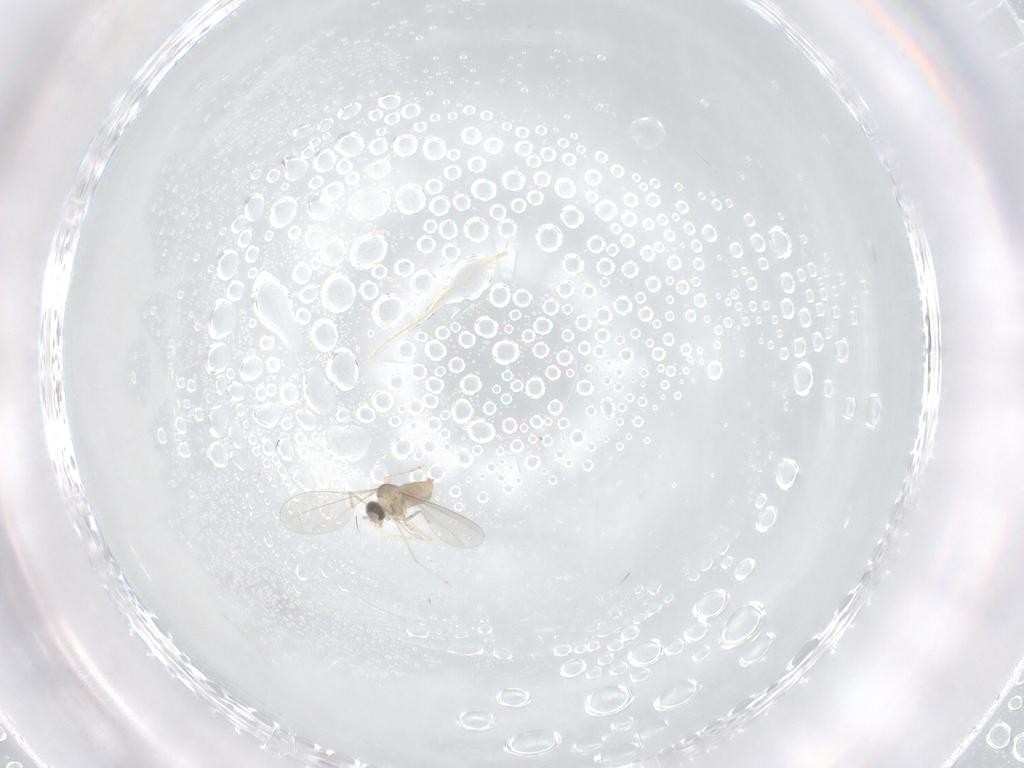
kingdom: Animalia
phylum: Arthropoda
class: Insecta
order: Diptera
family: Cecidomyiidae
